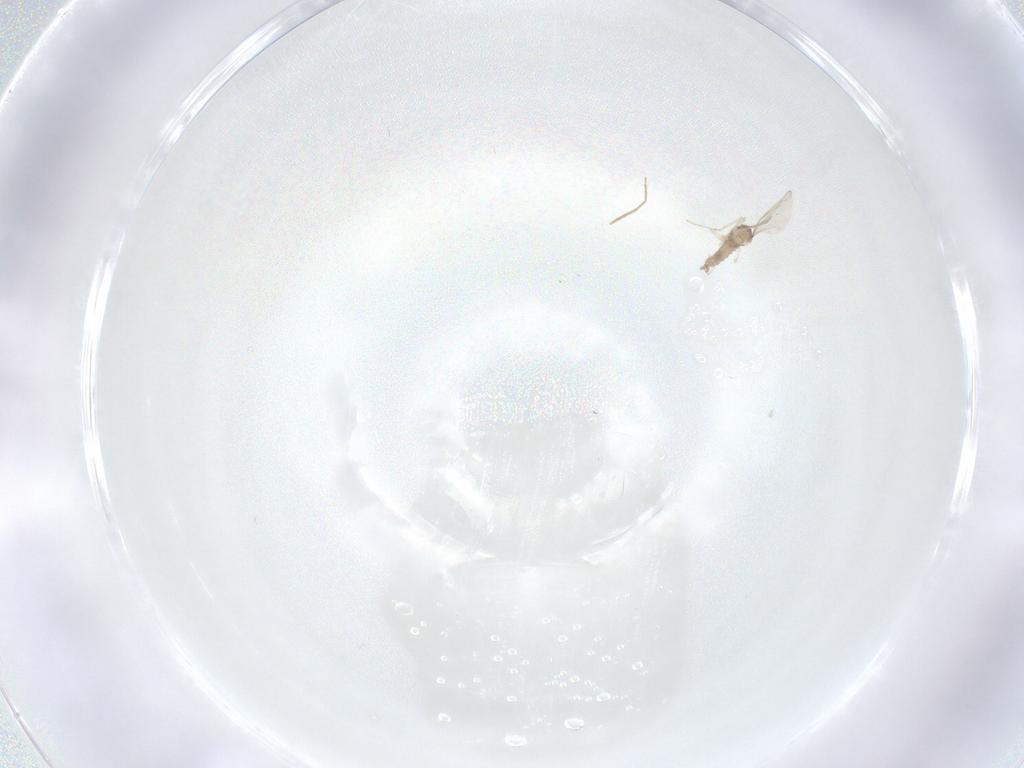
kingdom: Animalia
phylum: Arthropoda
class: Insecta
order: Diptera
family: Cecidomyiidae
